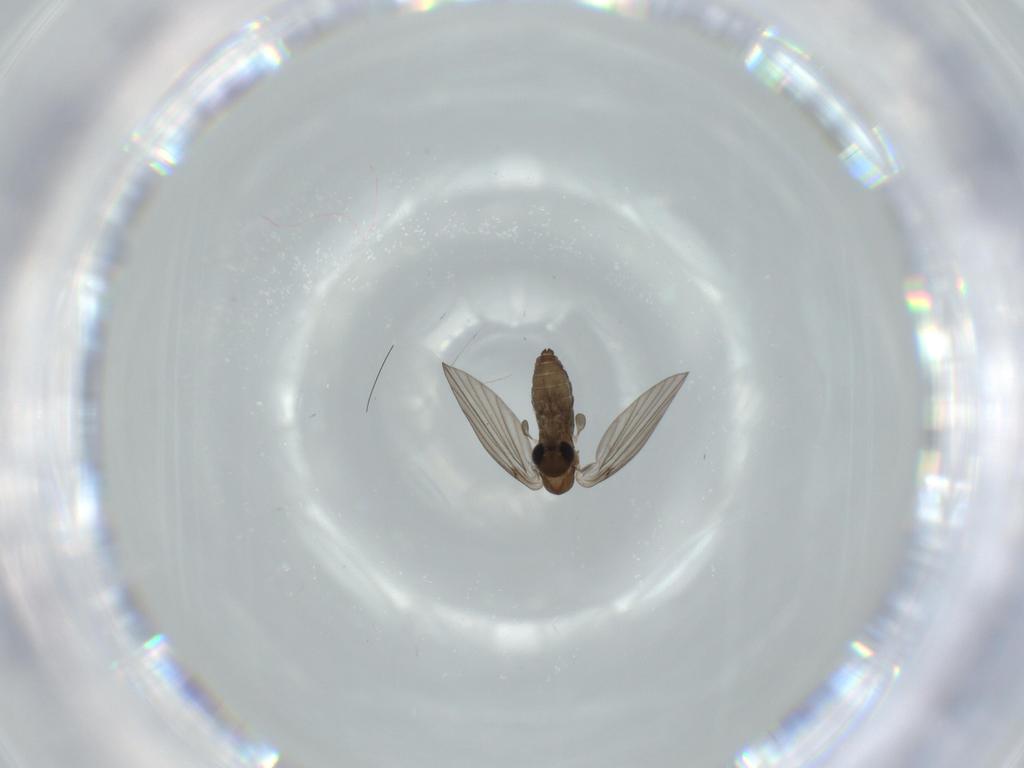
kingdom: Animalia
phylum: Arthropoda
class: Insecta
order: Diptera
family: Psychodidae
